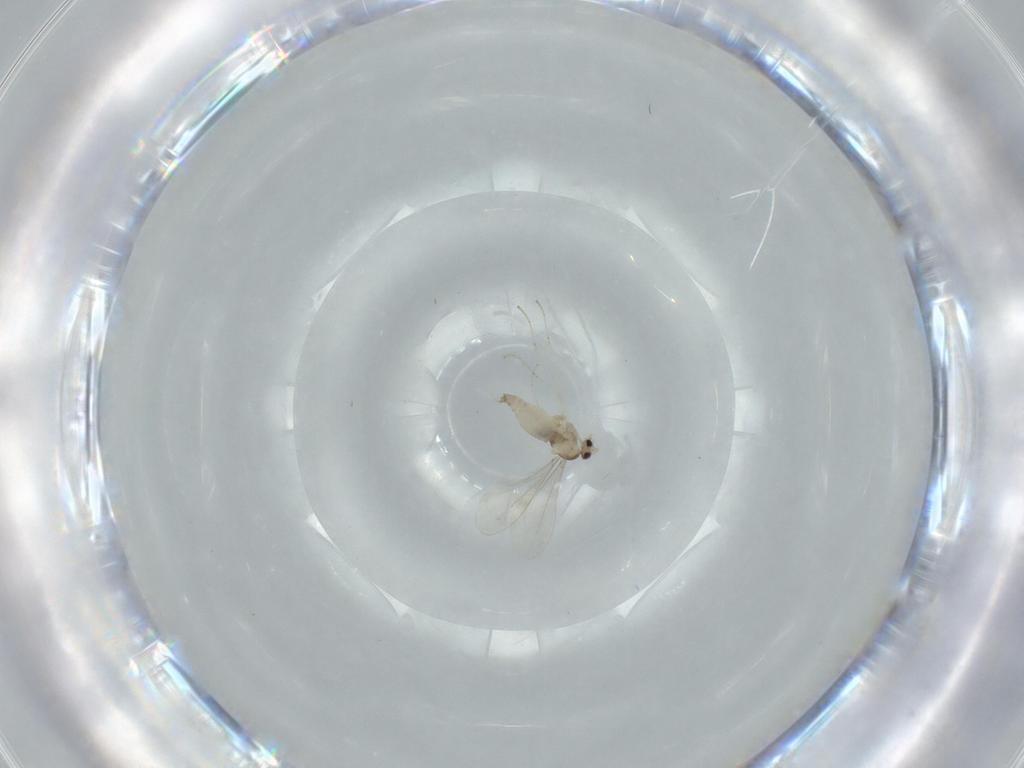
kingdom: Animalia
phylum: Arthropoda
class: Insecta
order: Diptera
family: Cecidomyiidae
